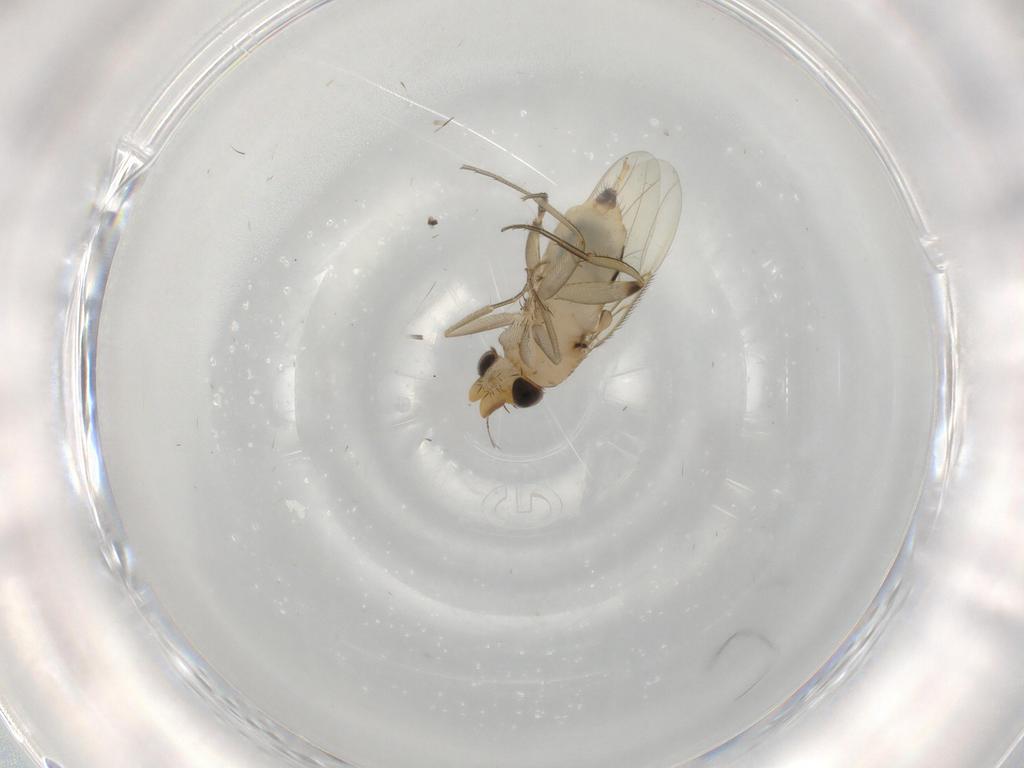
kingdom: Animalia
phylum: Arthropoda
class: Insecta
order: Diptera
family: Phoridae
